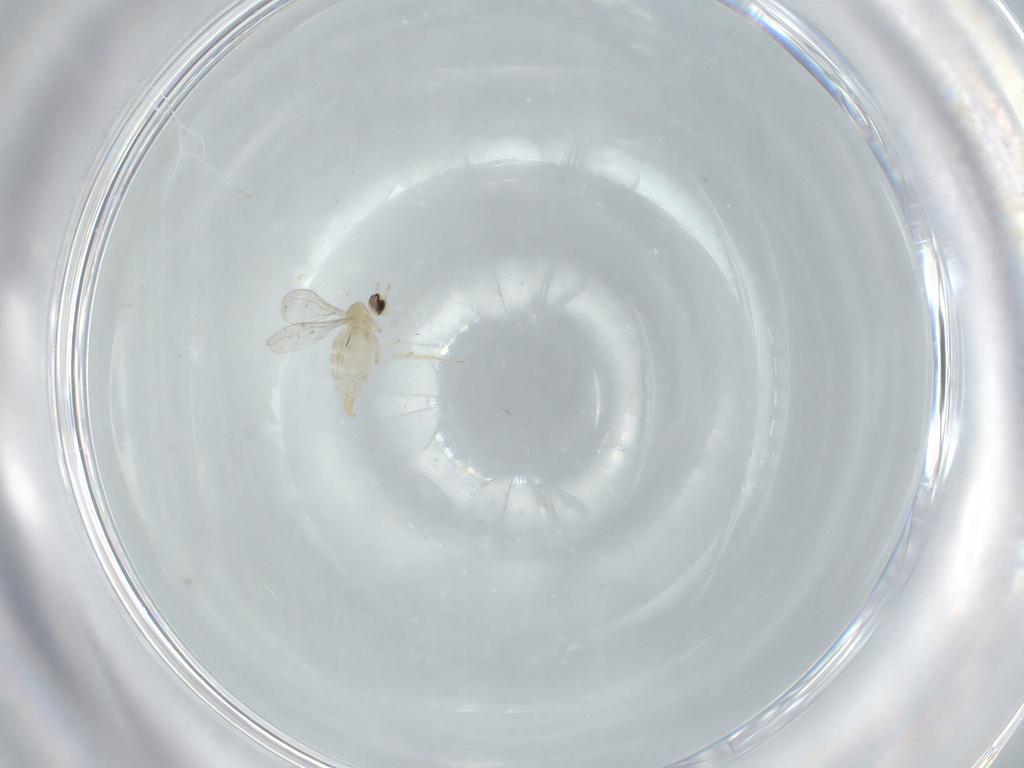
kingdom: Animalia
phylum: Arthropoda
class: Insecta
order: Diptera
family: Cecidomyiidae
